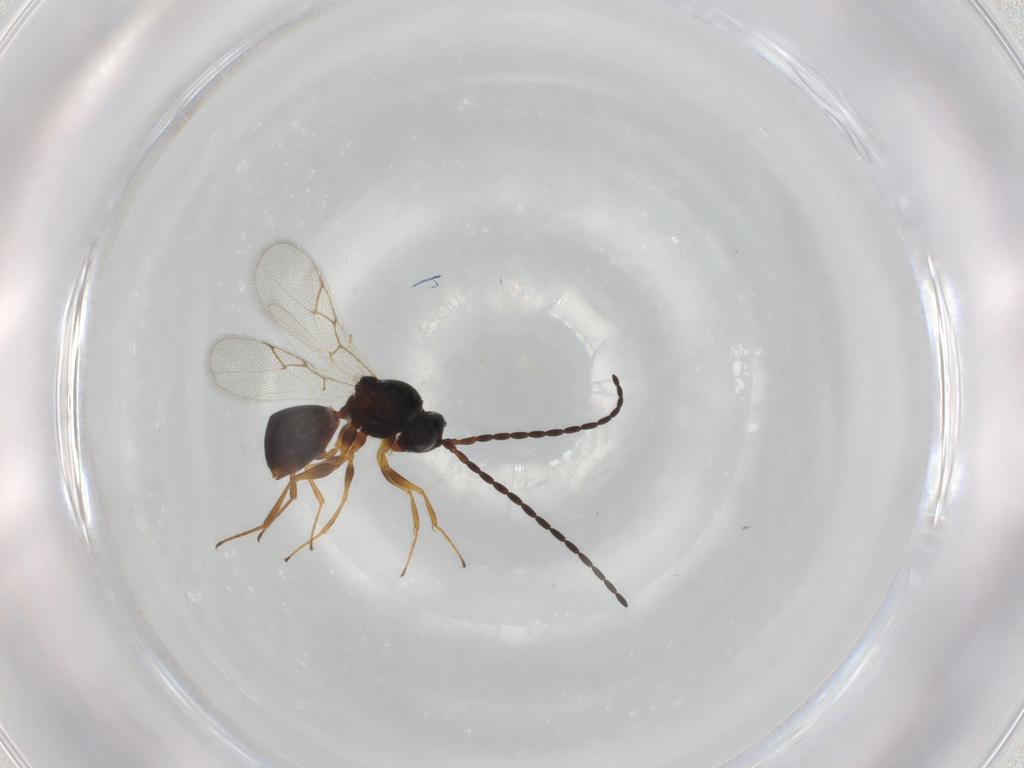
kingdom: Animalia
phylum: Arthropoda
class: Insecta
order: Hymenoptera
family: Figitidae
